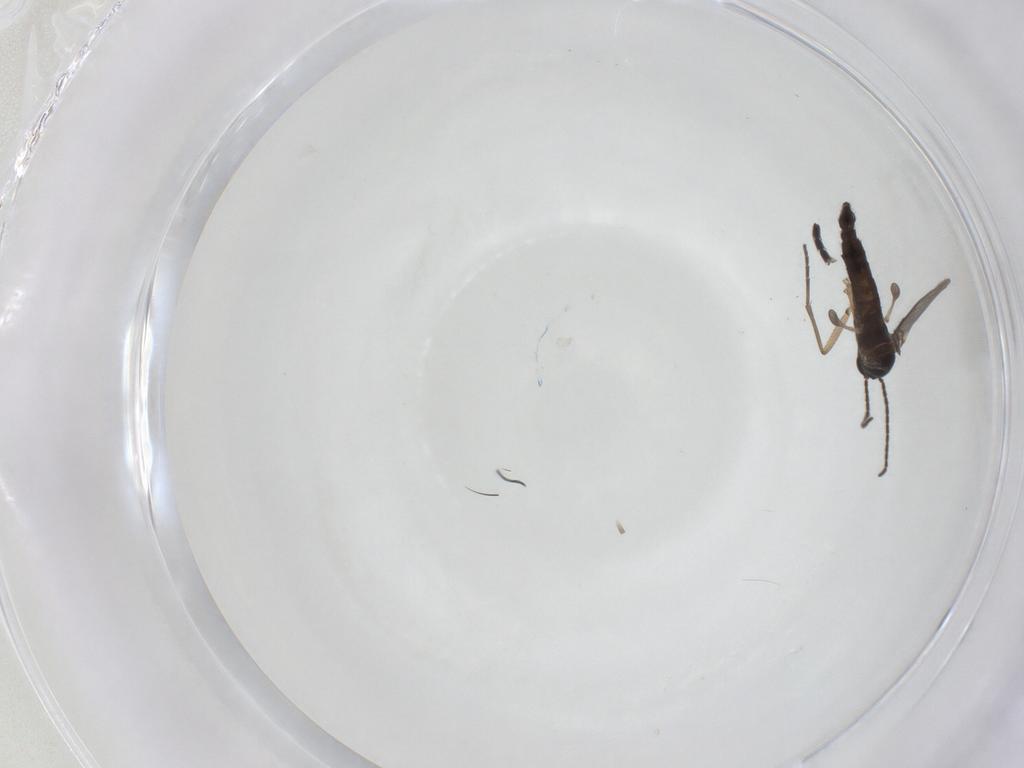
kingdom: Animalia
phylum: Arthropoda
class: Insecta
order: Diptera
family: Sciaridae
